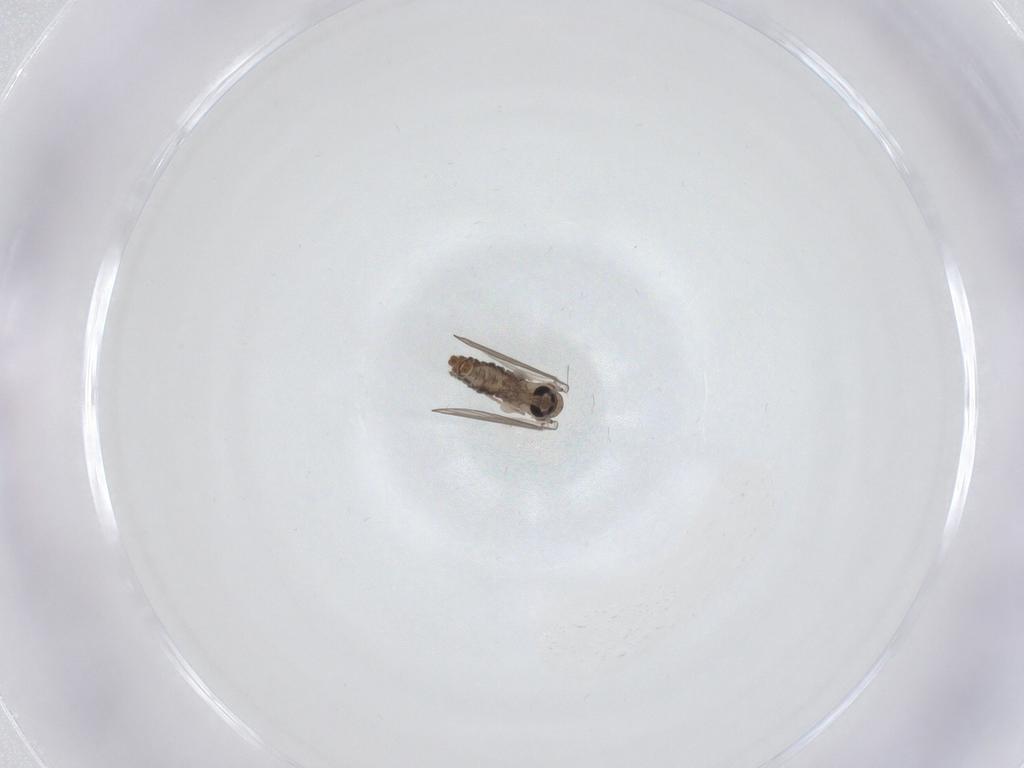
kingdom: Animalia
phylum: Arthropoda
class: Insecta
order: Diptera
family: Psychodidae
